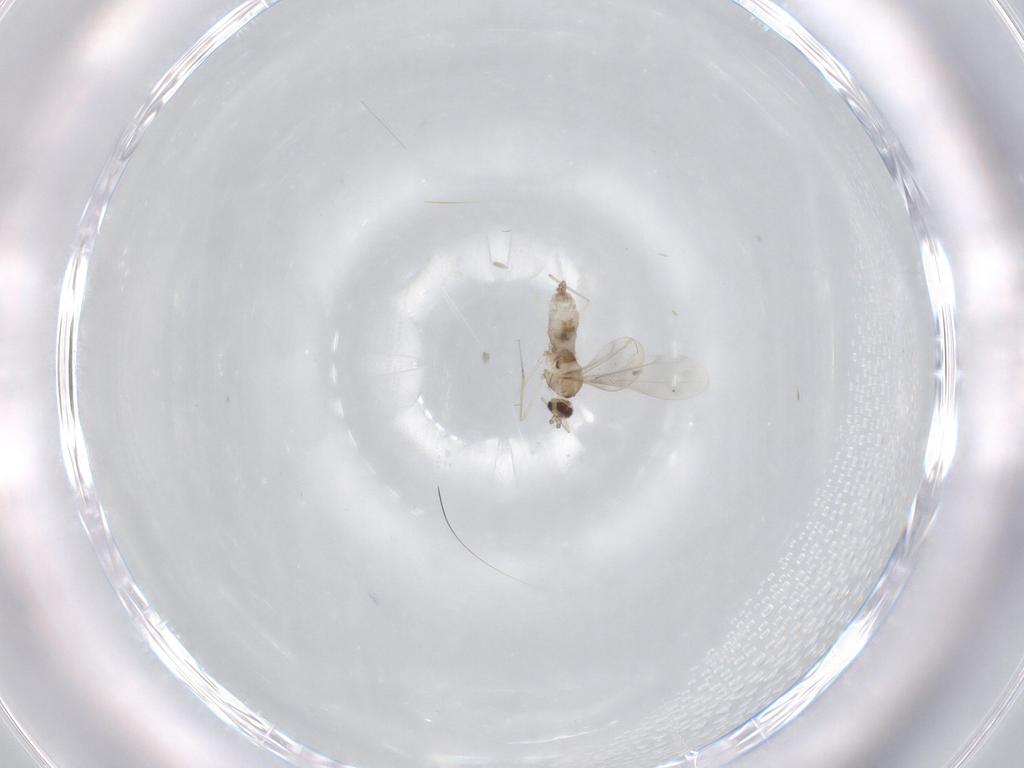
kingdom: Animalia
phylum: Arthropoda
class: Insecta
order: Diptera
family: Cecidomyiidae
